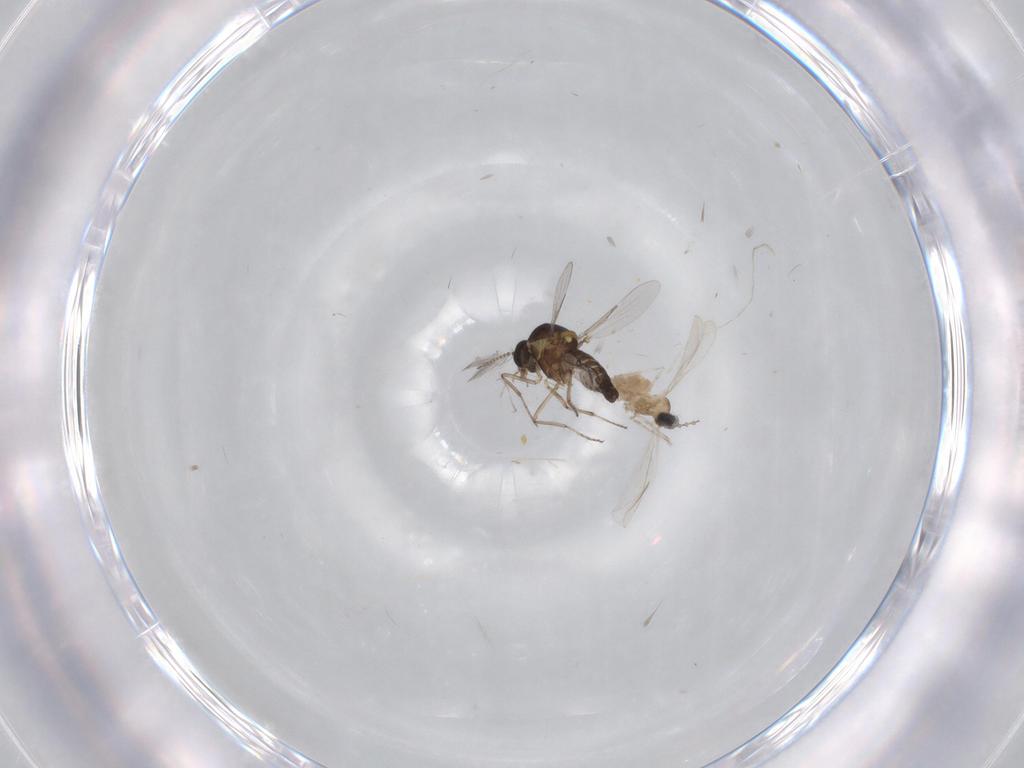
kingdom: Animalia
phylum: Arthropoda
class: Insecta
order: Diptera
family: Ceratopogonidae
